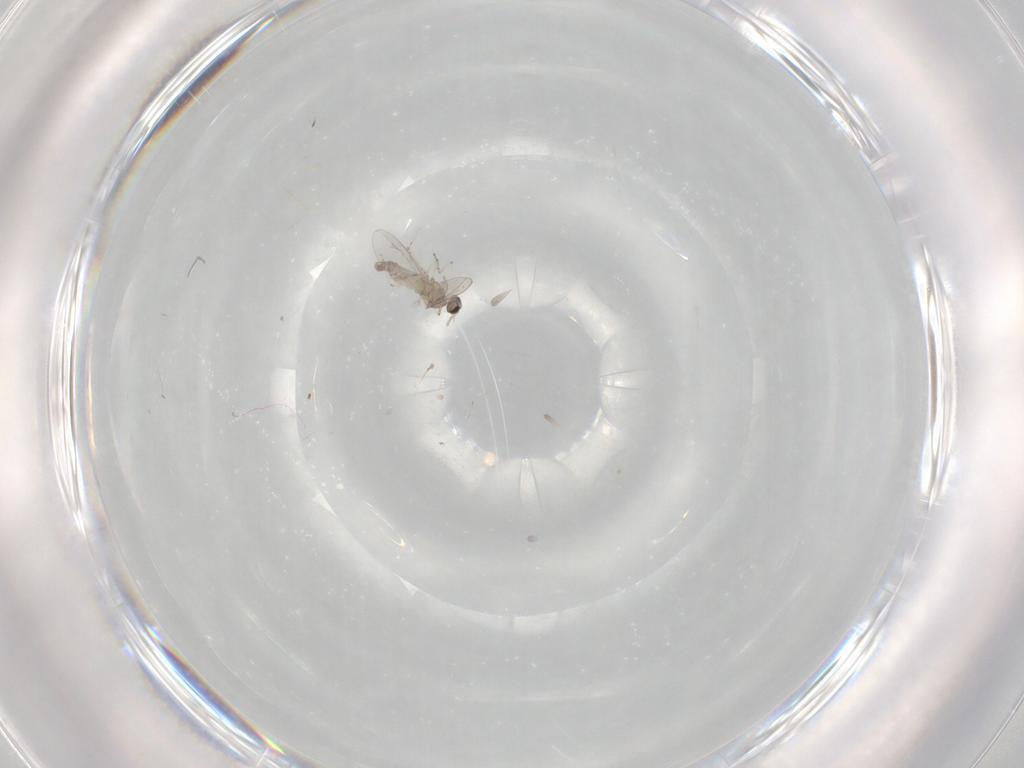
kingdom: Animalia
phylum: Arthropoda
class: Insecta
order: Diptera
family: Cecidomyiidae
